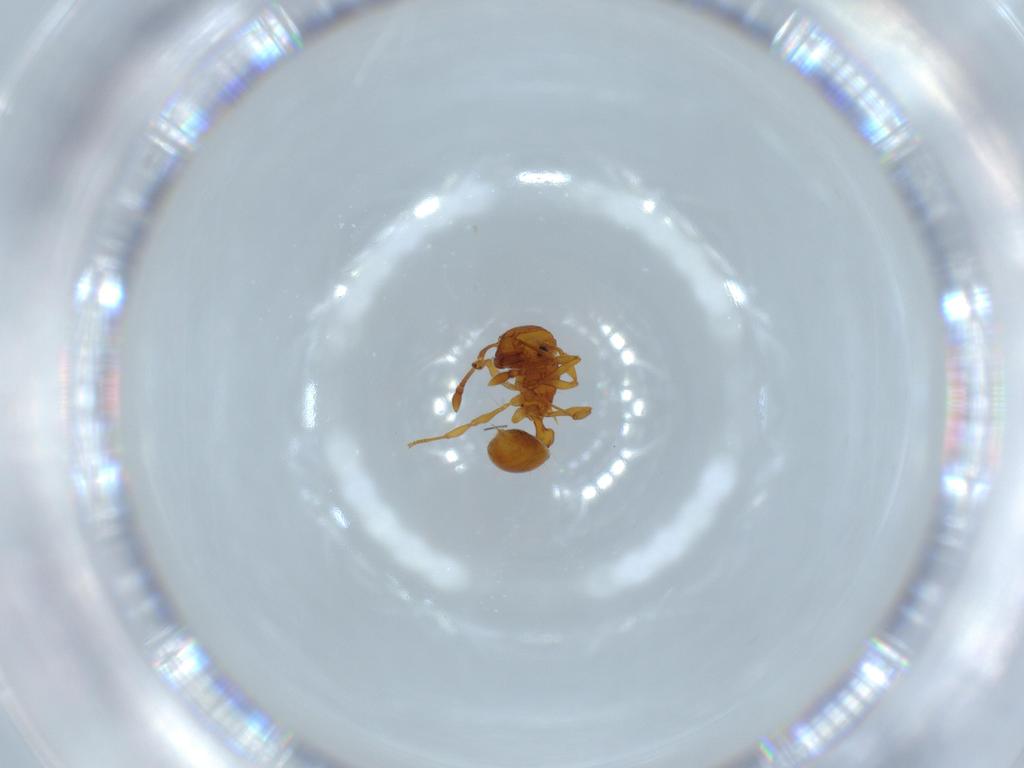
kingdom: Animalia
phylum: Arthropoda
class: Insecta
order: Hymenoptera
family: Formicidae
